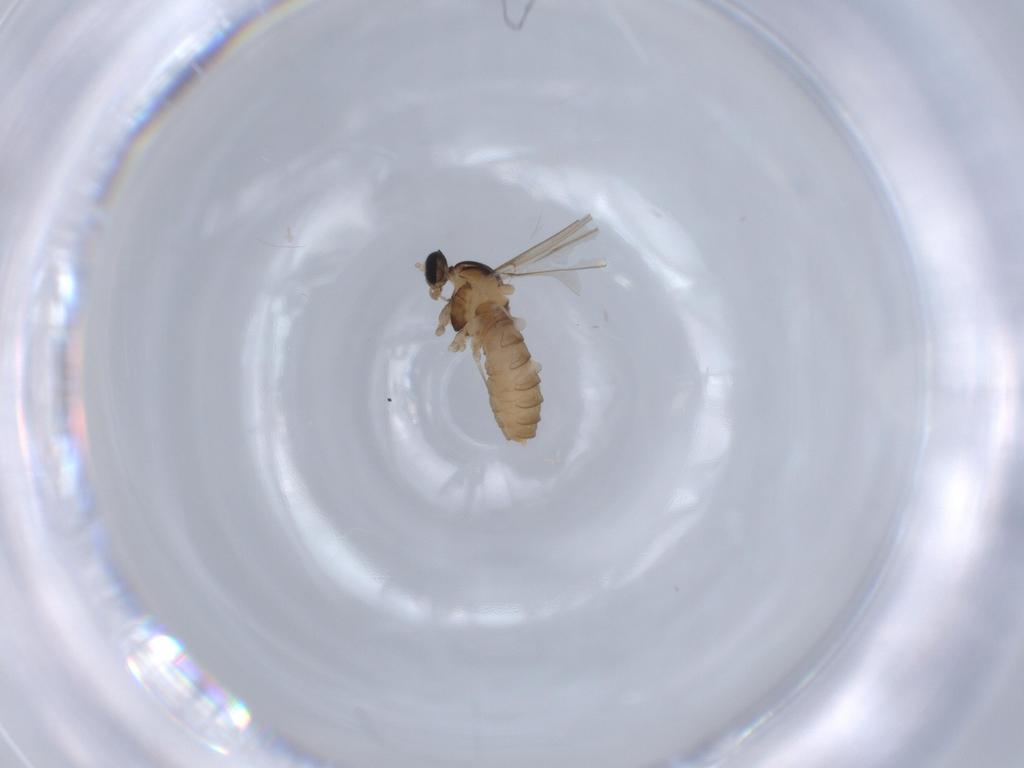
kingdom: Animalia
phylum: Arthropoda
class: Insecta
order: Diptera
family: Cecidomyiidae
